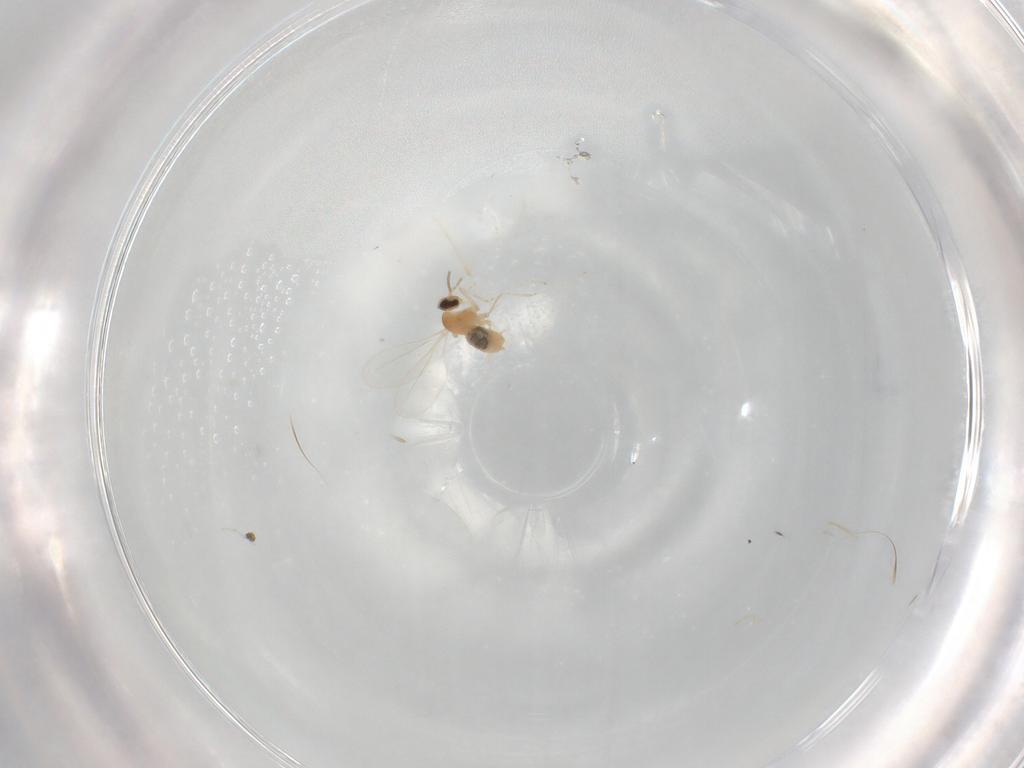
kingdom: Animalia
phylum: Arthropoda
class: Insecta
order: Diptera
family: Cecidomyiidae
